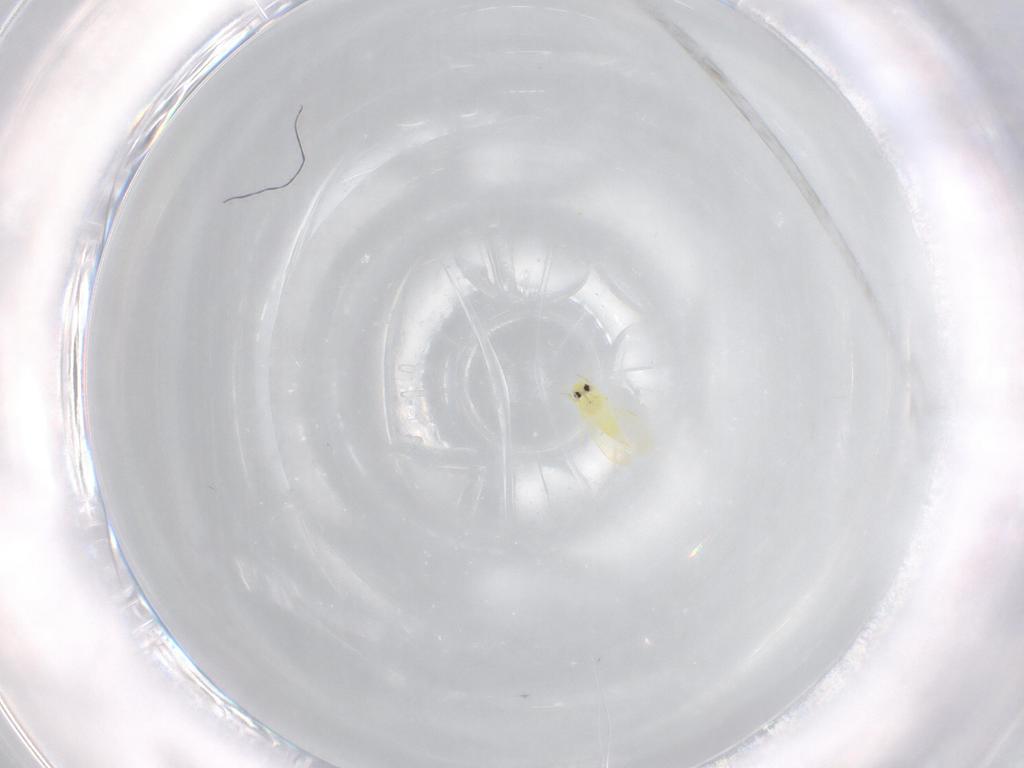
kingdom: Animalia
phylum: Arthropoda
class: Insecta
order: Hemiptera
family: Aleyrodidae
